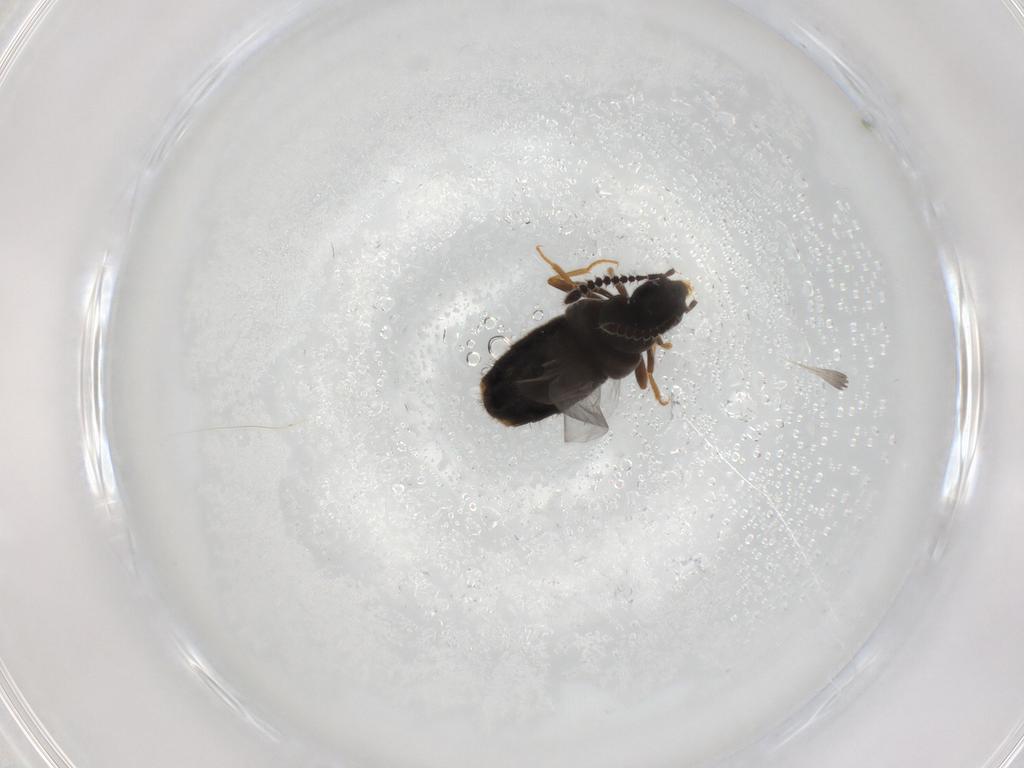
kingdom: Animalia
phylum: Arthropoda
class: Insecta
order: Coleoptera
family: Staphylinidae
